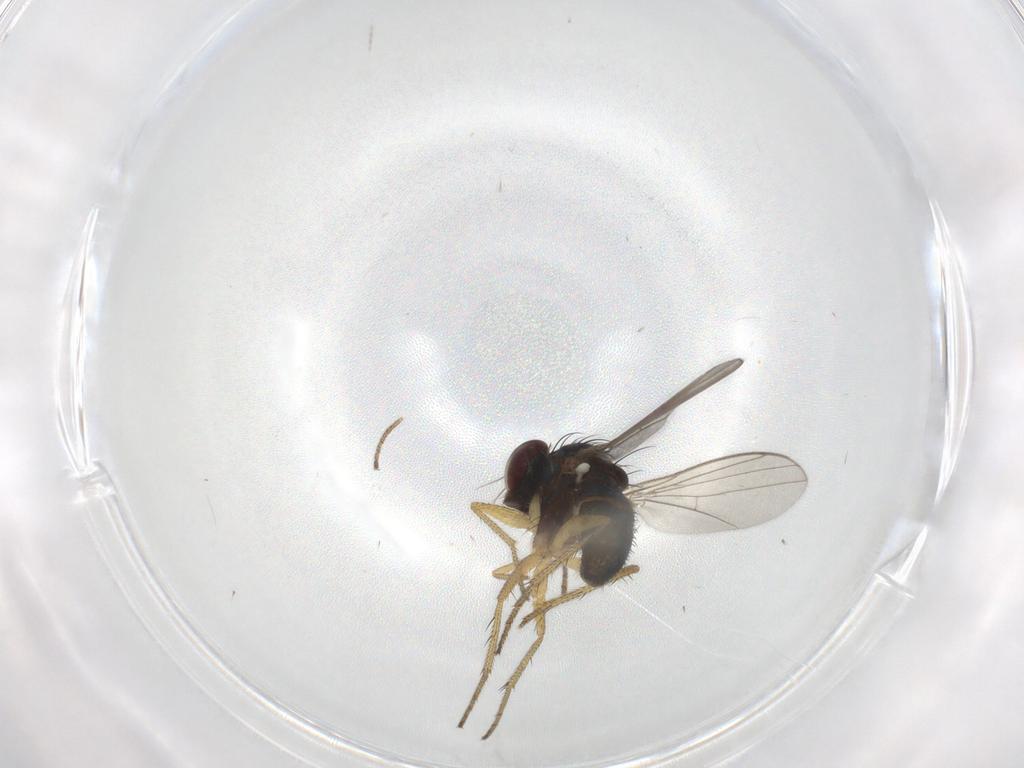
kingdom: Animalia
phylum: Arthropoda
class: Insecta
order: Diptera
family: Dolichopodidae
